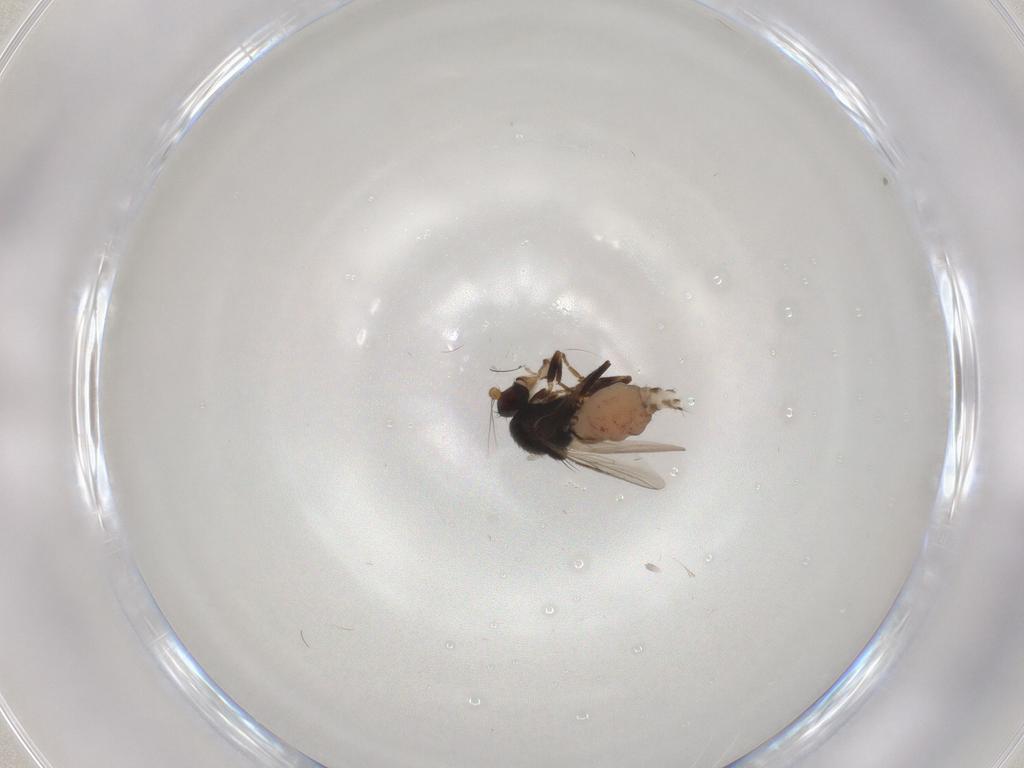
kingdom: Animalia
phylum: Arthropoda
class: Insecta
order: Diptera
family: Sphaeroceridae
